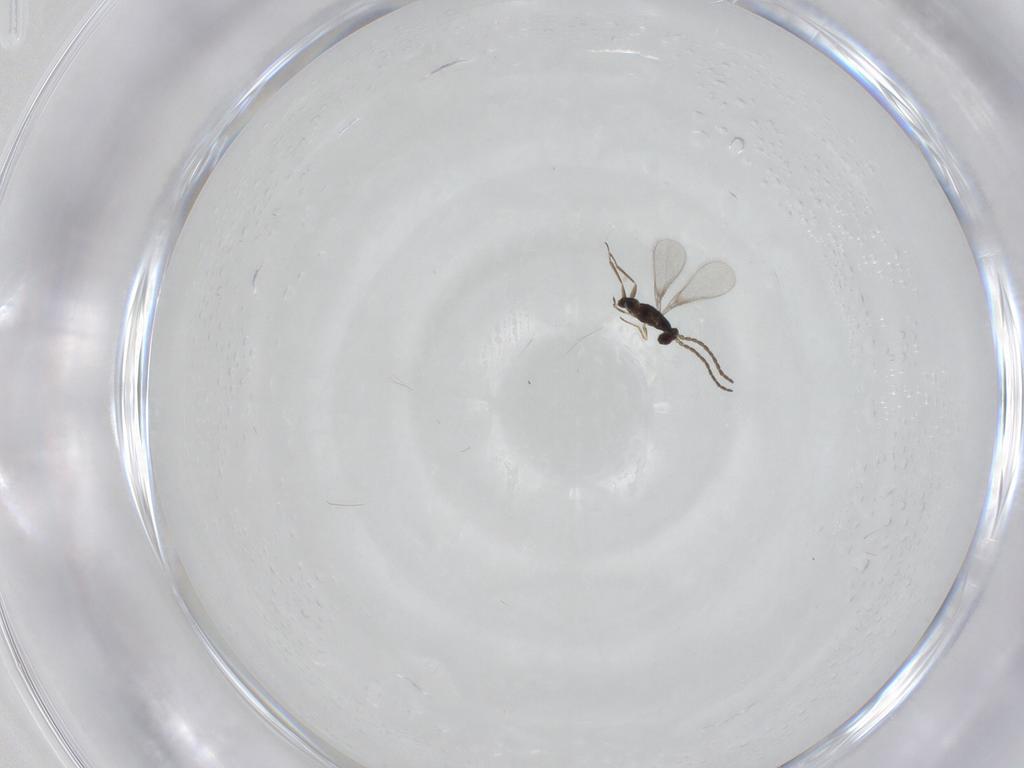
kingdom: Animalia
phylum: Arthropoda
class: Insecta
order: Hymenoptera
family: Mymaridae
